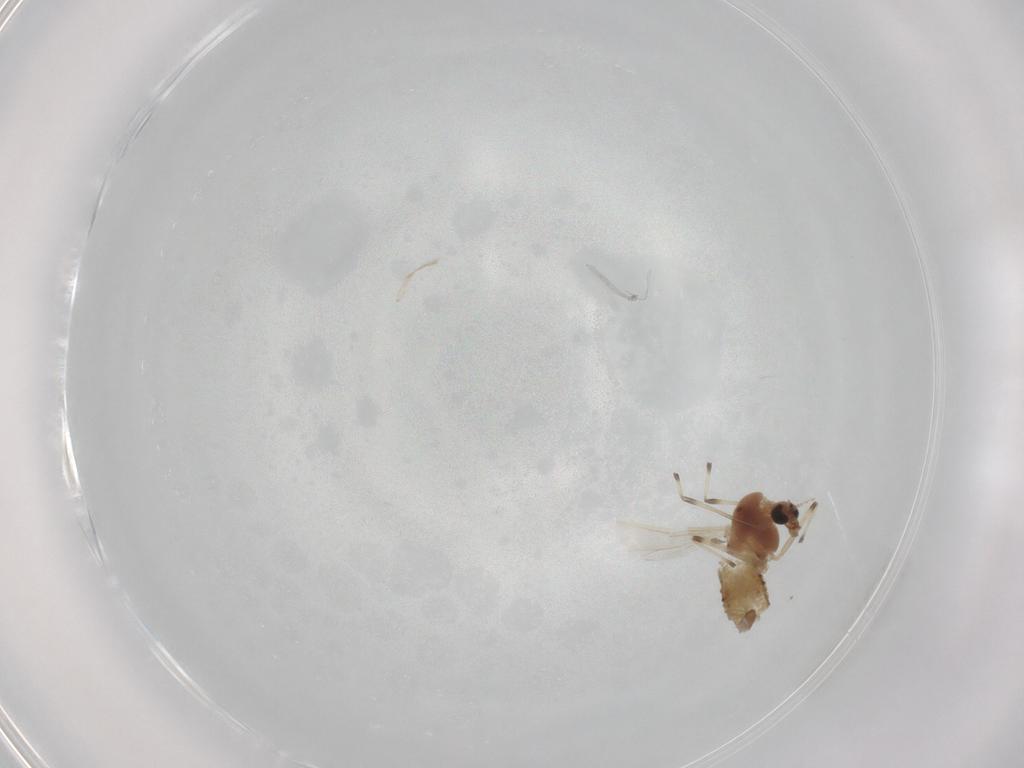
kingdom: Animalia
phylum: Arthropoda
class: Insecta
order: Diptera
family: Chironomidae
